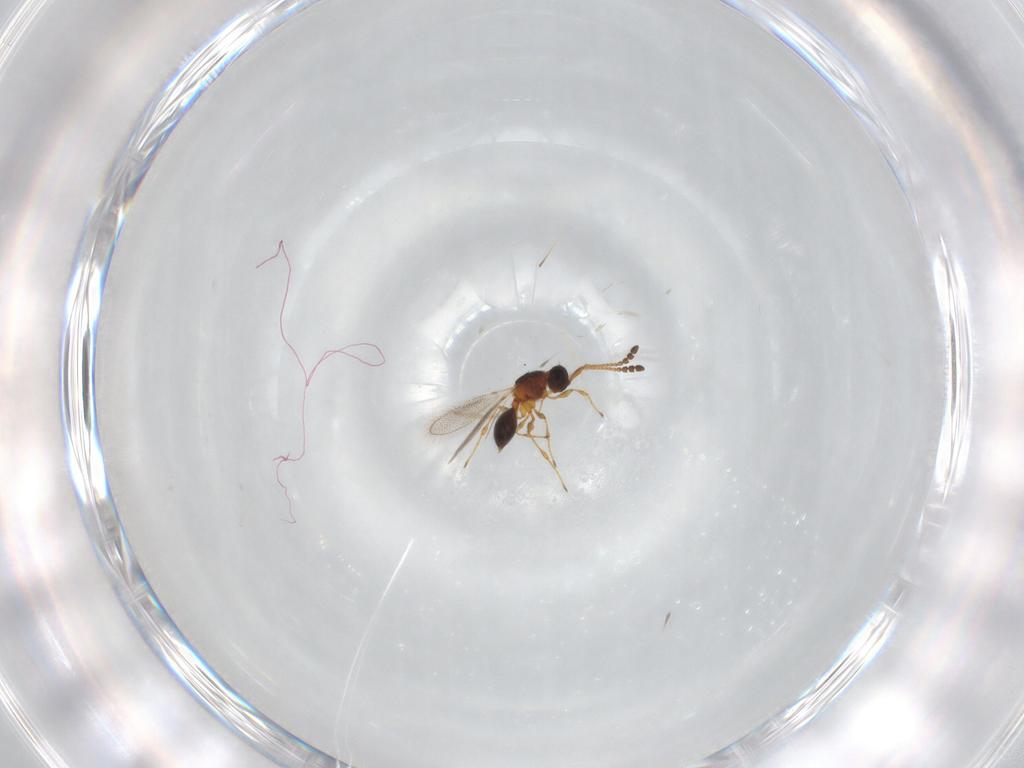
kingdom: Animalia
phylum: Arthropoda
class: Insecta
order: Hymenoptera
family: Diapriidae
